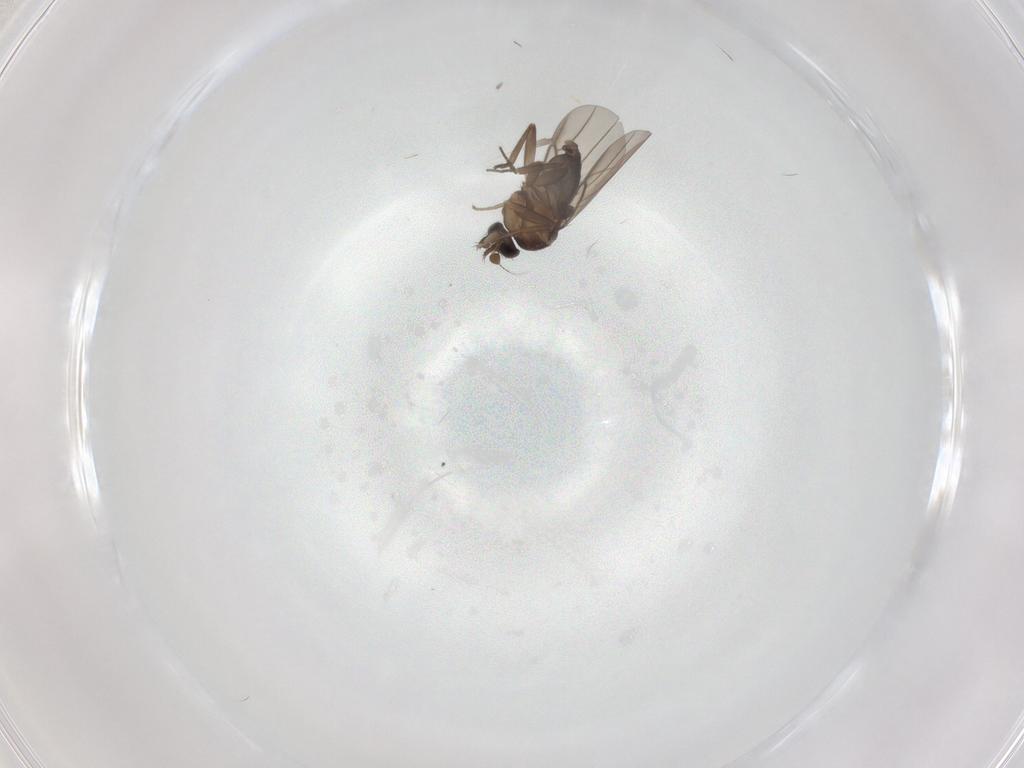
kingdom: Animalia
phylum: Arthropoda
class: Insecta
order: Diptera
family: Phoridae
